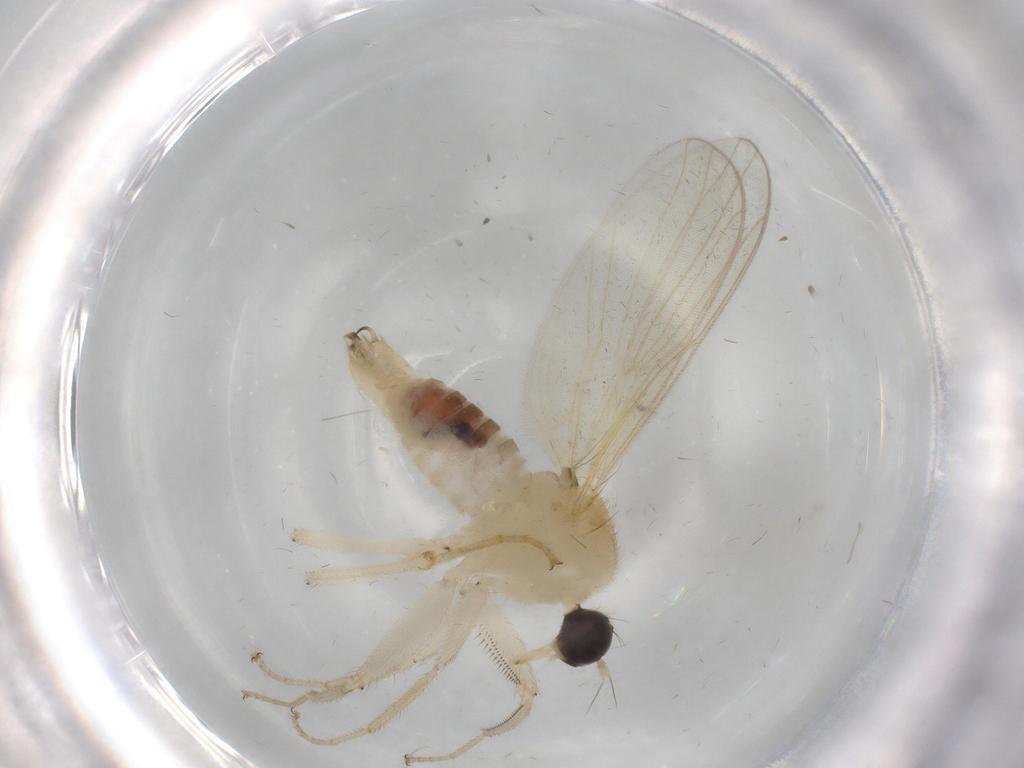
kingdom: Animalia
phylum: Arthropoda
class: Insecta
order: Diptera
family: Hybotidae
